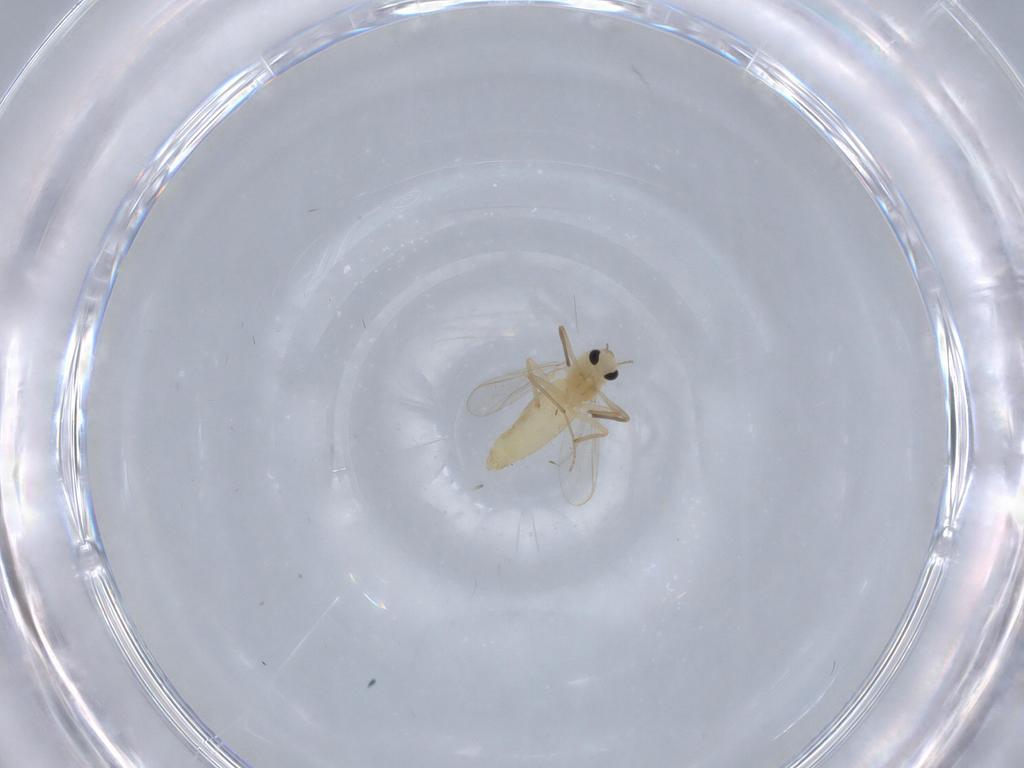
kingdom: Animalia
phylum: Arthropoda
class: Insecta
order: Diptera
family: Chironomidae
